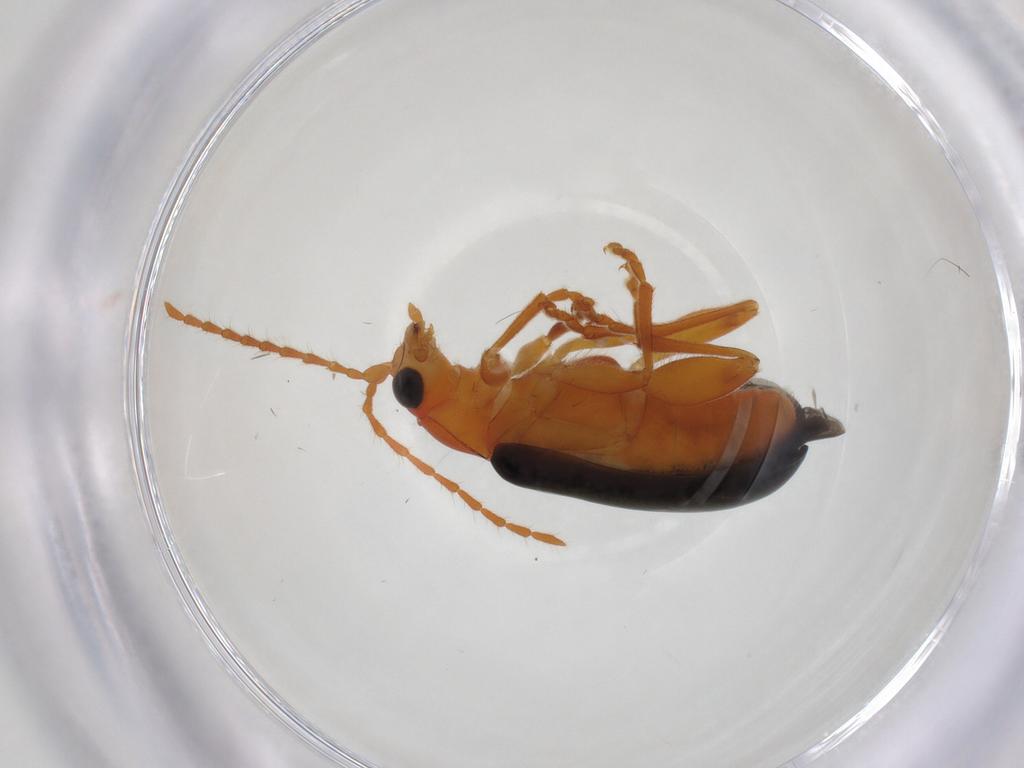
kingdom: Animalia
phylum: Arthropoda
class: Insecta
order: Coleoptera
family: Chrysomelidae
